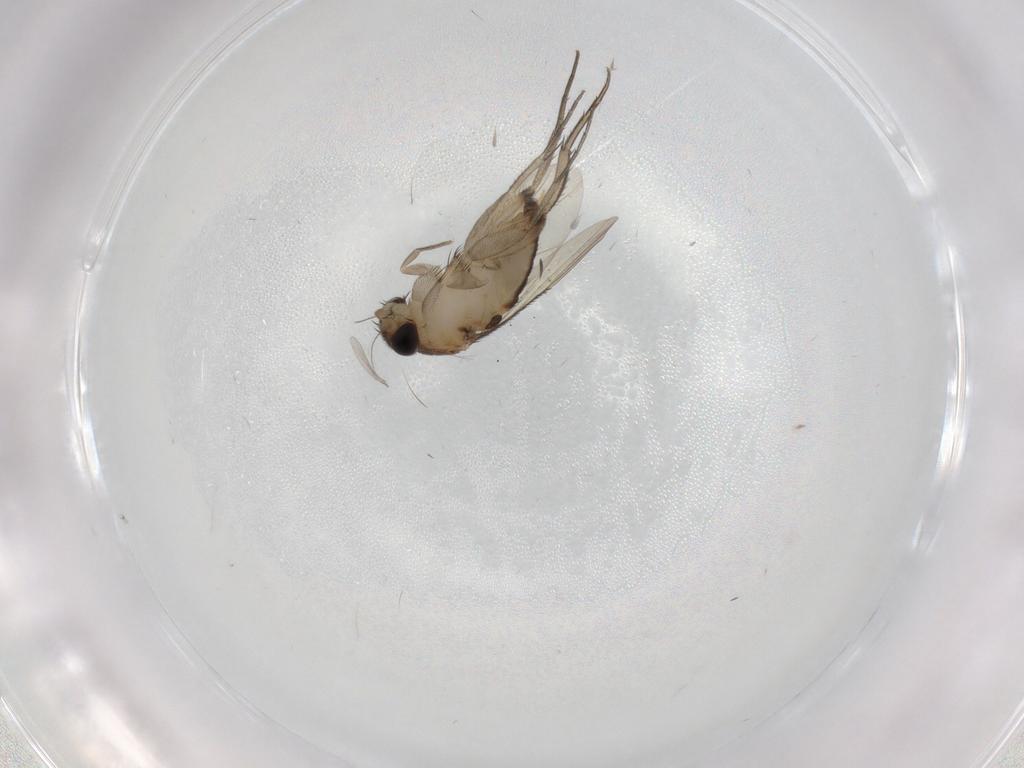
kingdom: Animalia
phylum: Arthropoda
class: Insecta
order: Diptera
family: Phoridae
